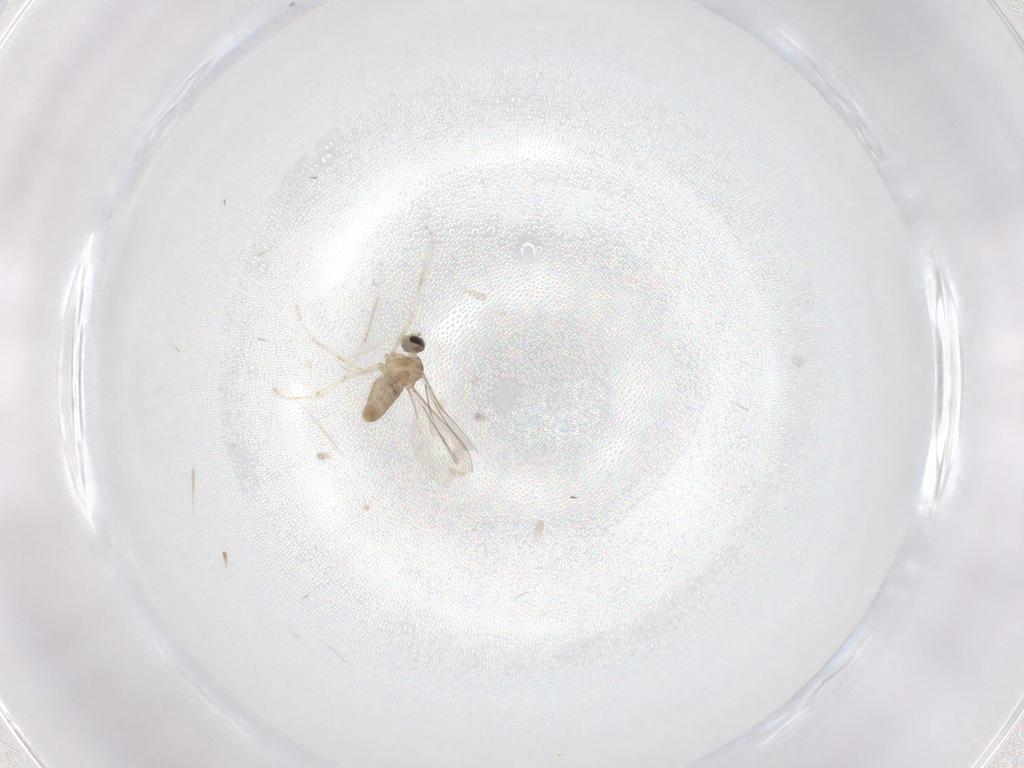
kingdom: Animalia
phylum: Arthropoda
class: Insecta
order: Diptera
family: Cecidomyiidae
